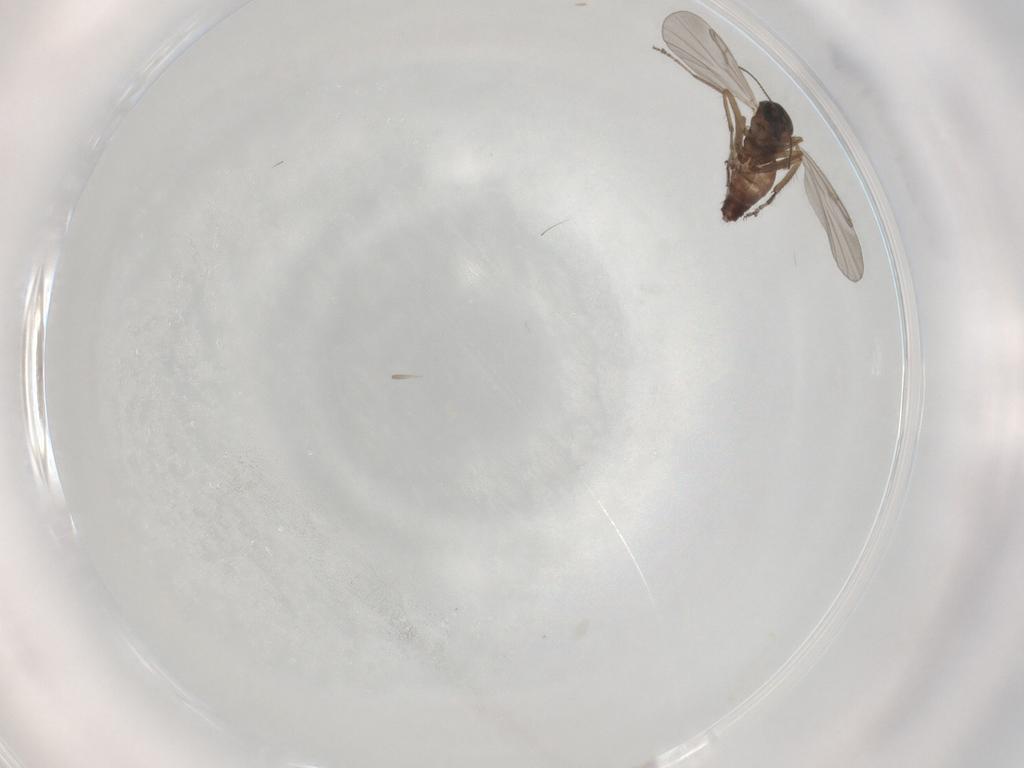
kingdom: Animalia
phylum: Arthropoda
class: Insecta
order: Diptera
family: Ceratopogonidae
